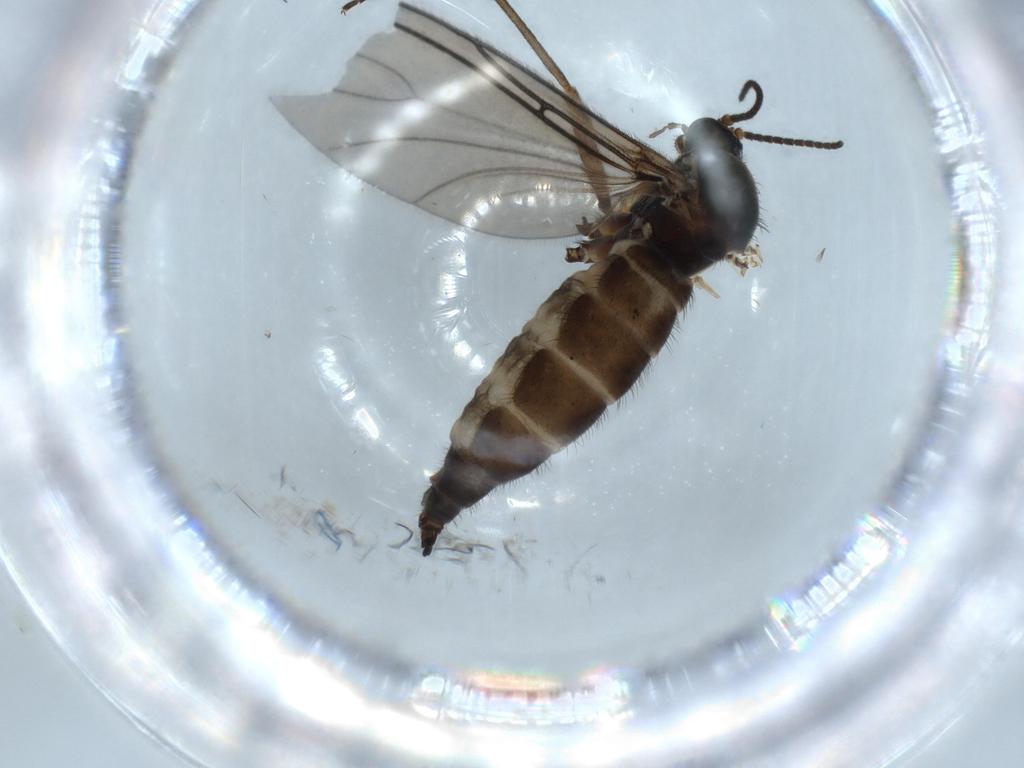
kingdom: Animalia
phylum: Arthropoda
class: Insecta
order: Diptera
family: Sciaridae
